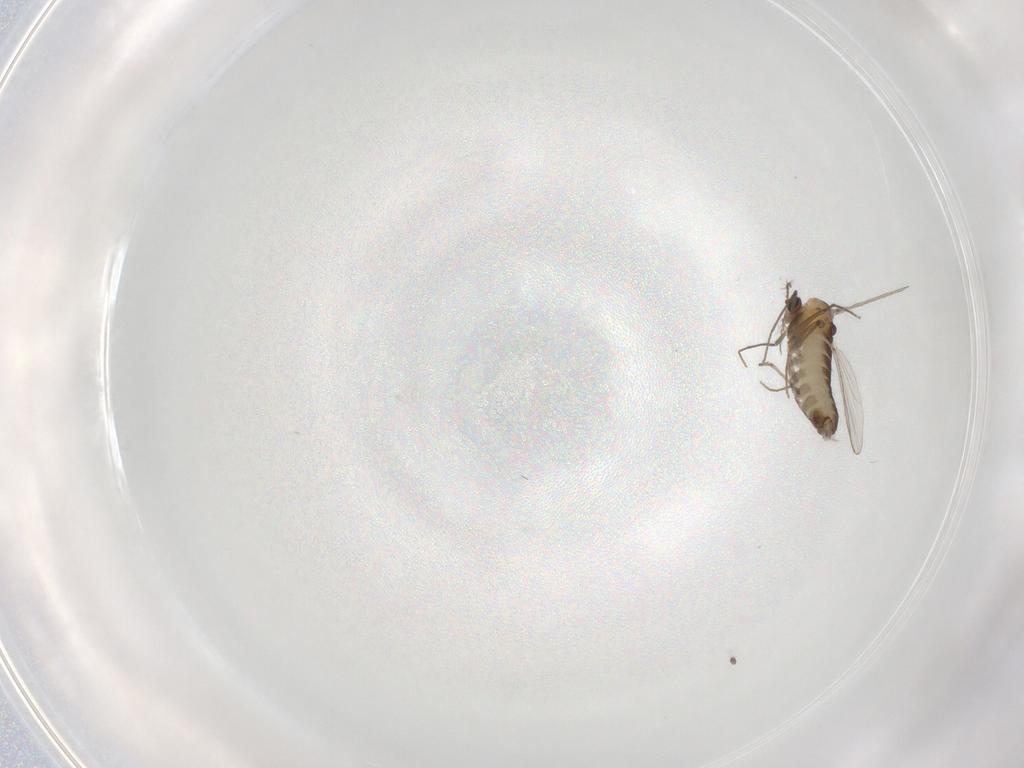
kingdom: Animalia
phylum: Arthropoda
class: Insecta
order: Diptera
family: Chironomidae
